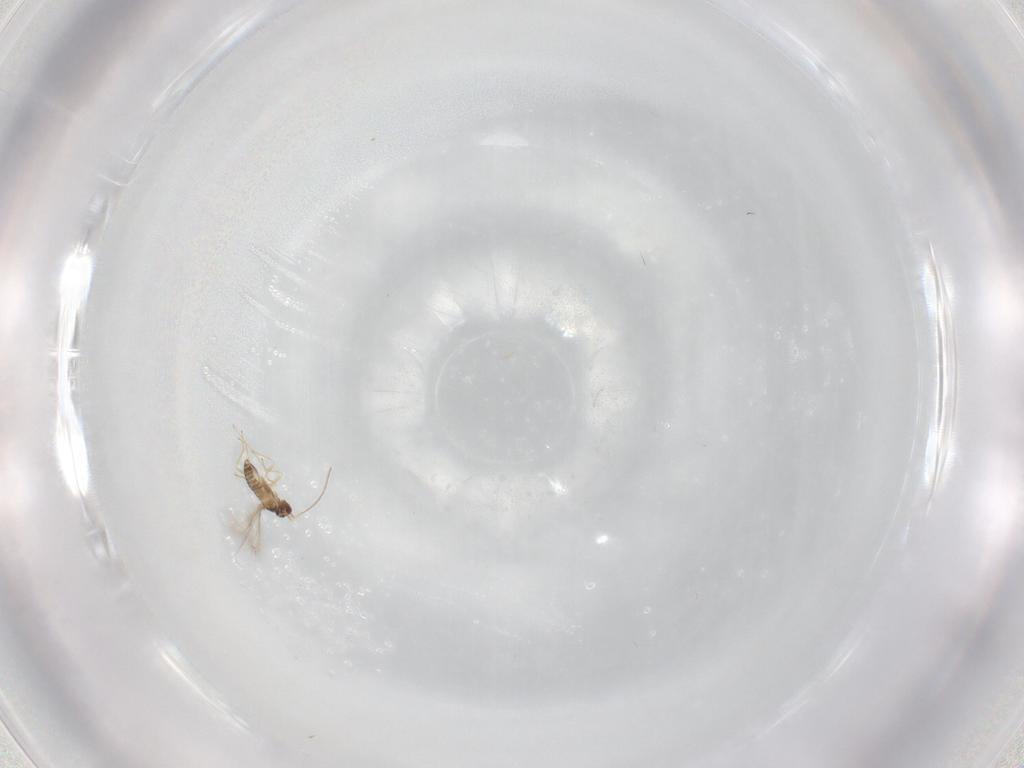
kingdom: Animalia
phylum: Arthropoda
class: Insecta
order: Hymenoptera
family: Mymaridae
